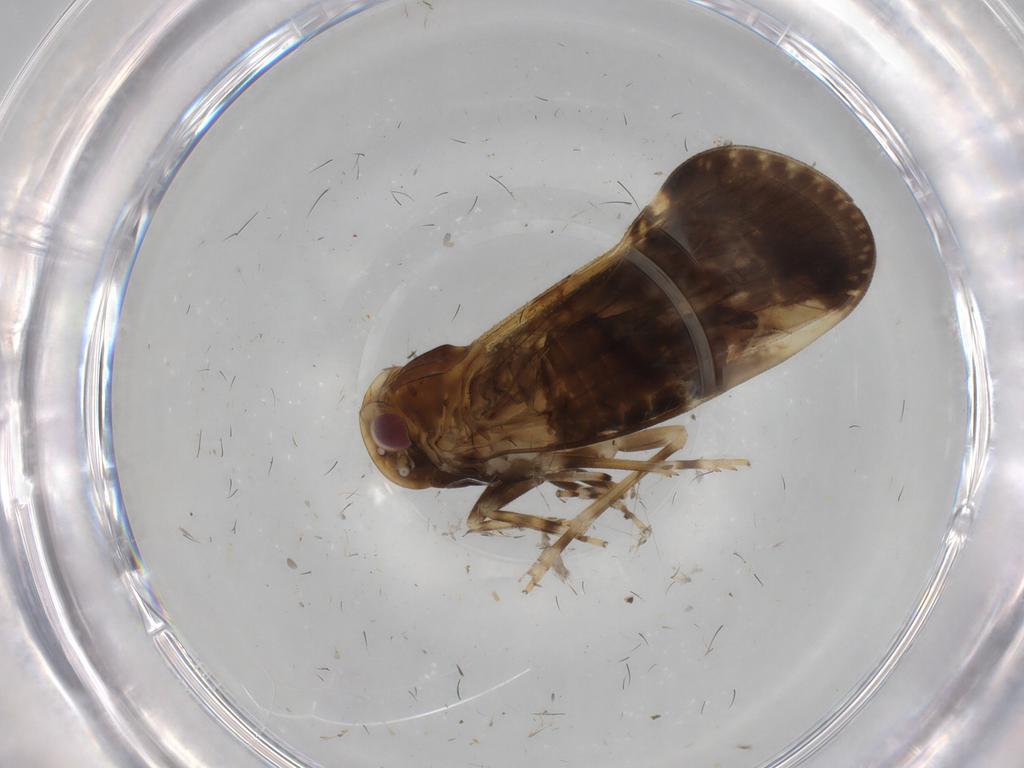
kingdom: Animalia
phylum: Arthropoda
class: Insecta
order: Hemiptera
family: Cixiidae
